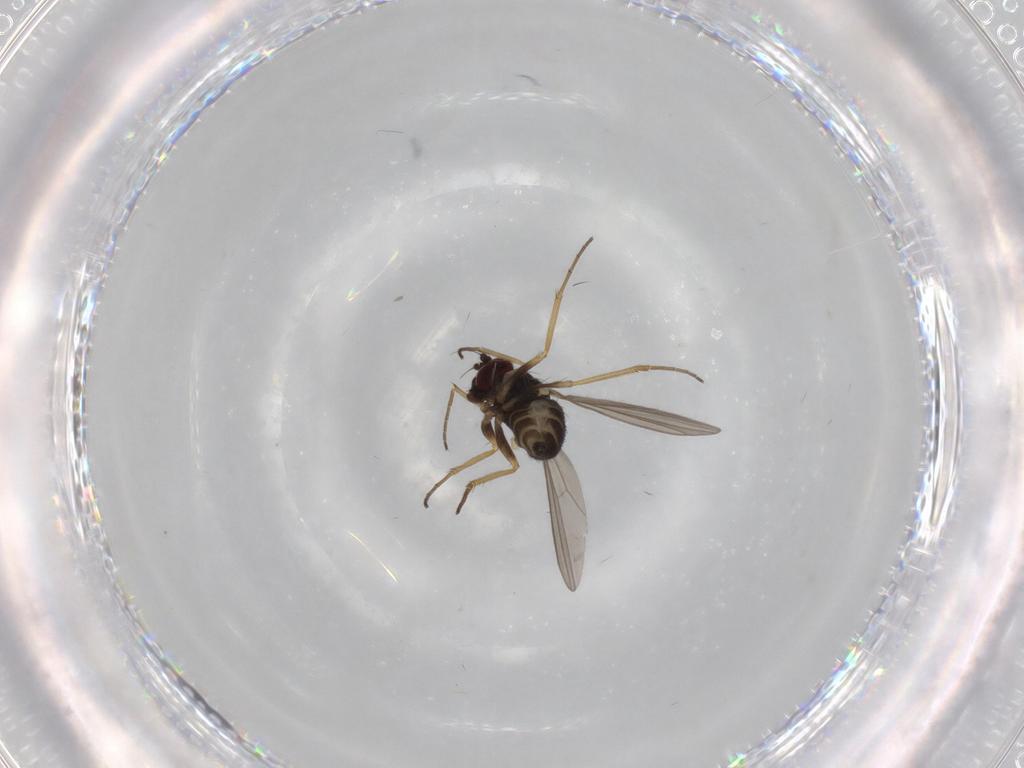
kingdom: Animalia
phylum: Arthropoda
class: Insecta
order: Diptera
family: Dolichopodidae
